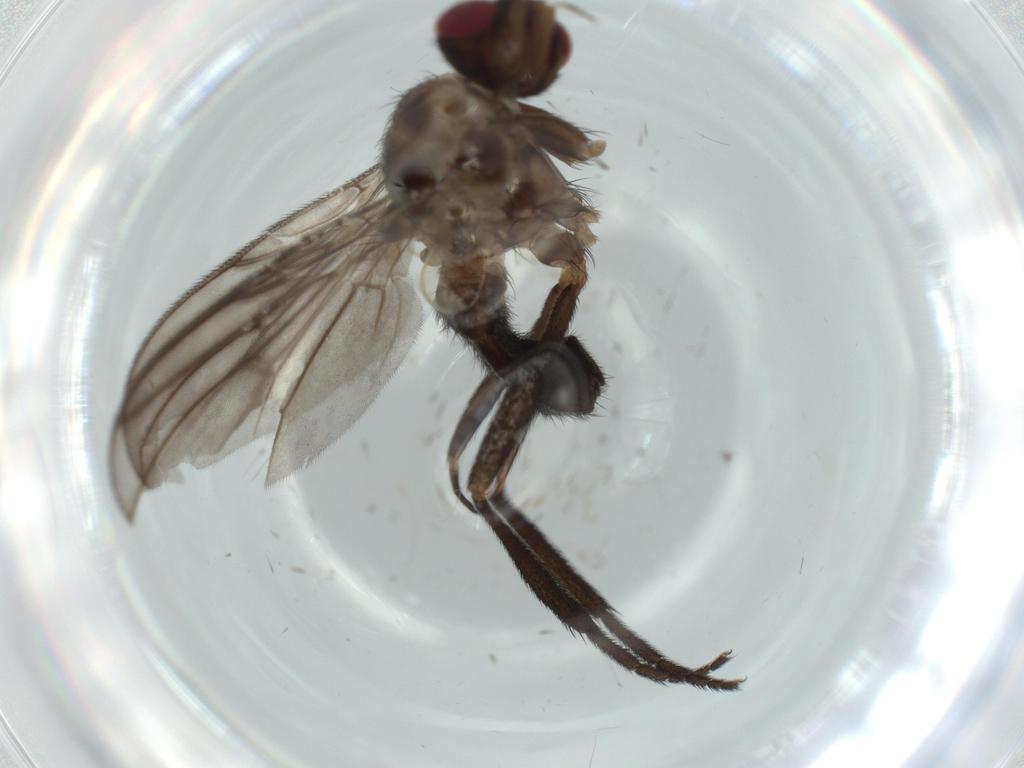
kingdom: Animalia
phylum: Arthropoda
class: Insecta
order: Diptera
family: Calliphoridae
